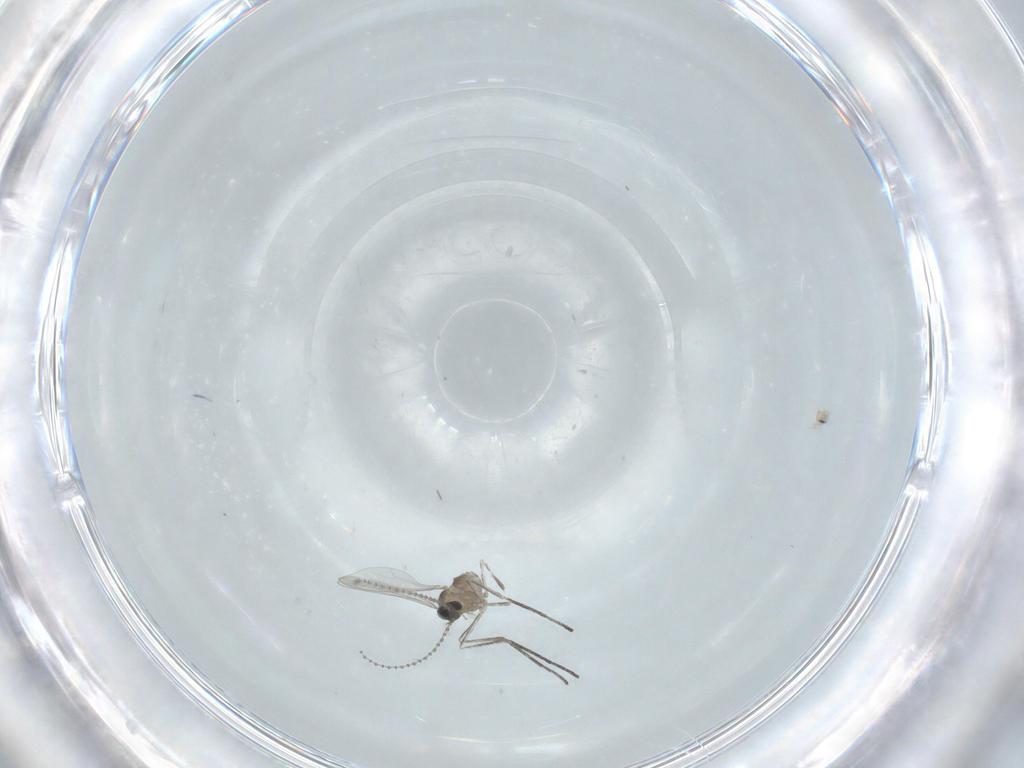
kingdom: Animalia
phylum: Arthropoda
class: Insecta
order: Diptera
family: Cecidomyiidae
